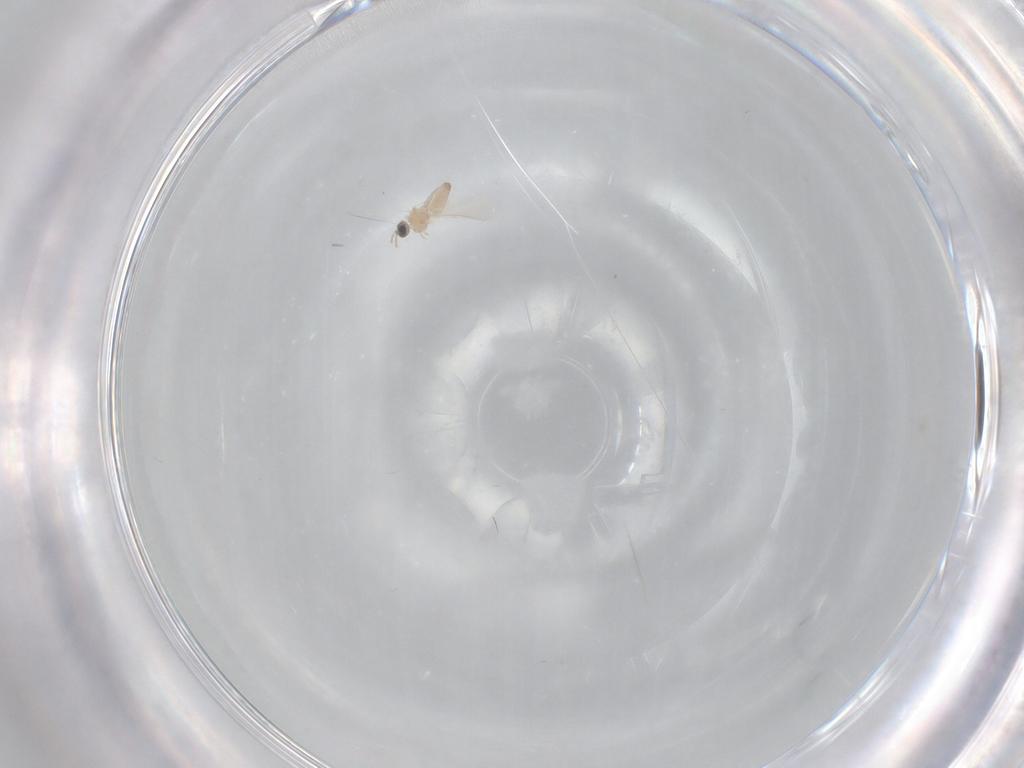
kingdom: Animalia
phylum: Arthropoda
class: Insecta
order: Diptera
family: Cecidomyiidae
